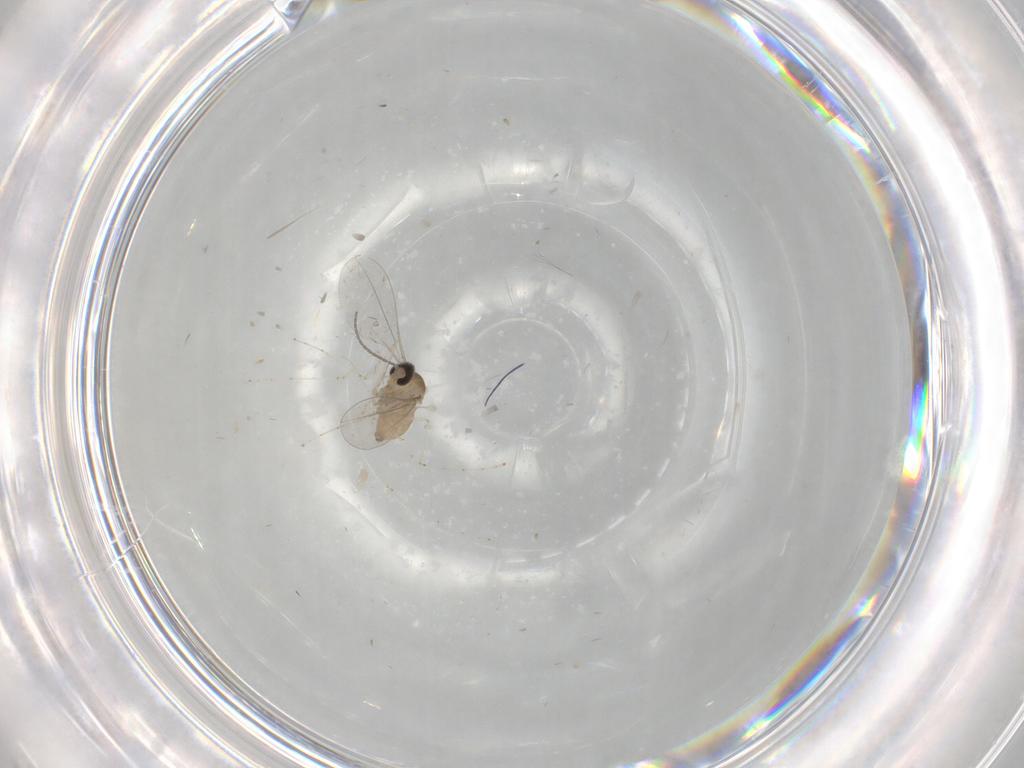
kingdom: Animalia
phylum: Arthropoda
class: Insecta
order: Diptera
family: Cecidomyiidae
